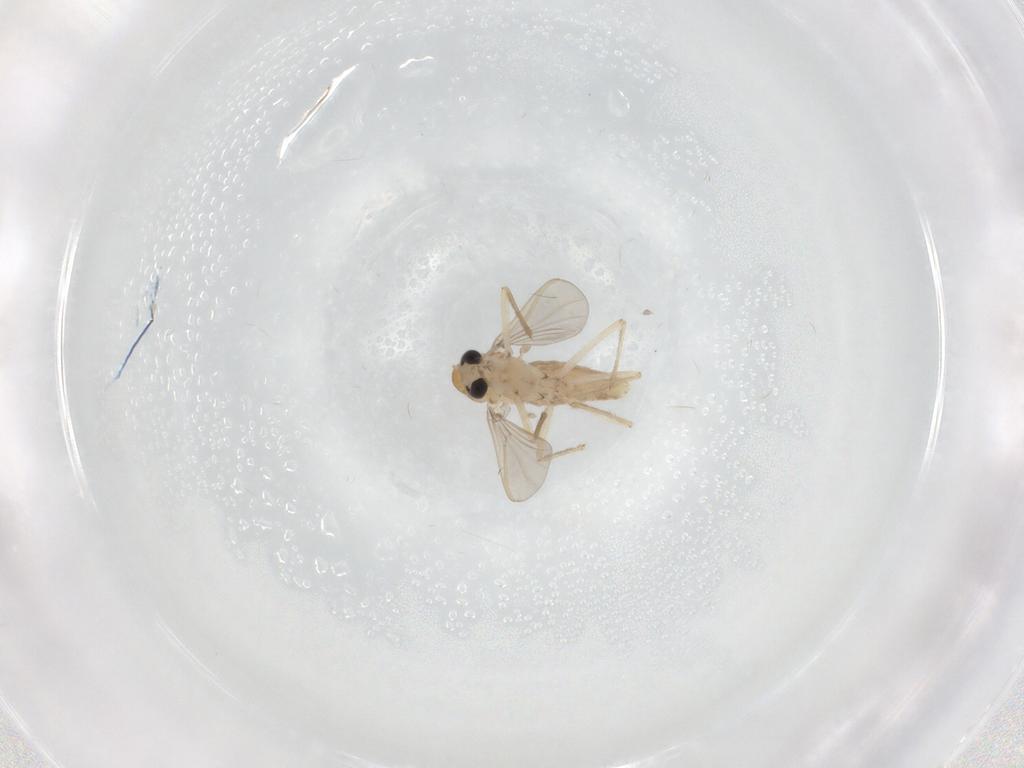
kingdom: Animalia
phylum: Arthropoda
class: Insecta
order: Diptera
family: Chironomidae
